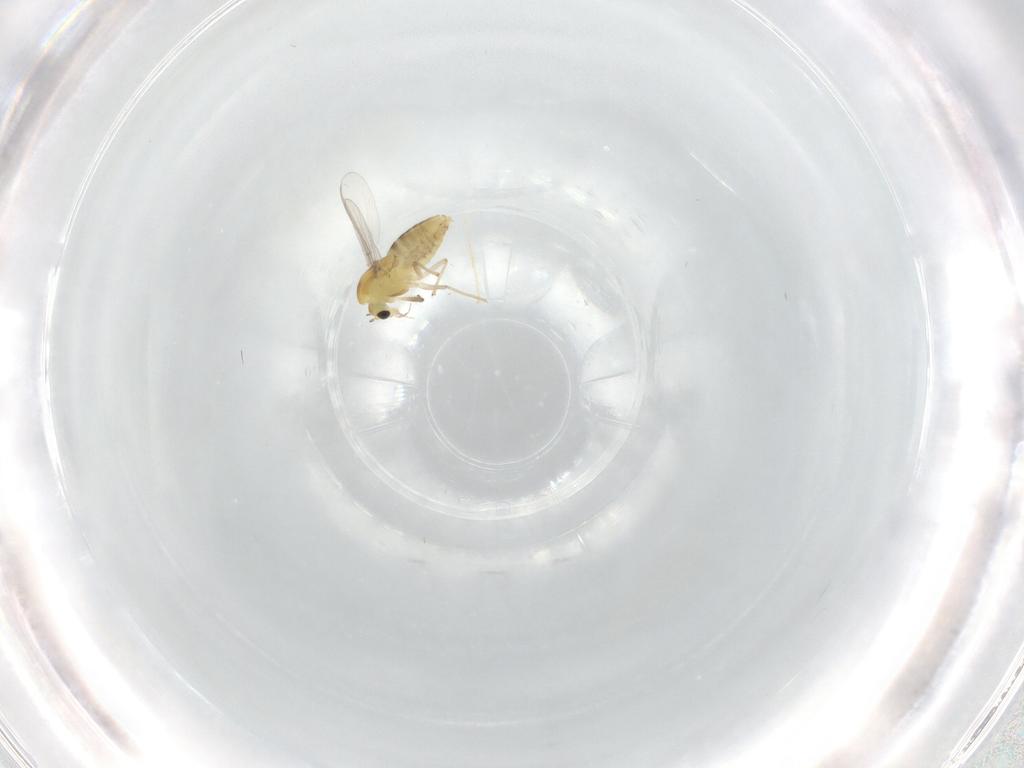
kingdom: Animalia
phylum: Arthropoda
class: Insecta
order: Diptera
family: Chironomidae
